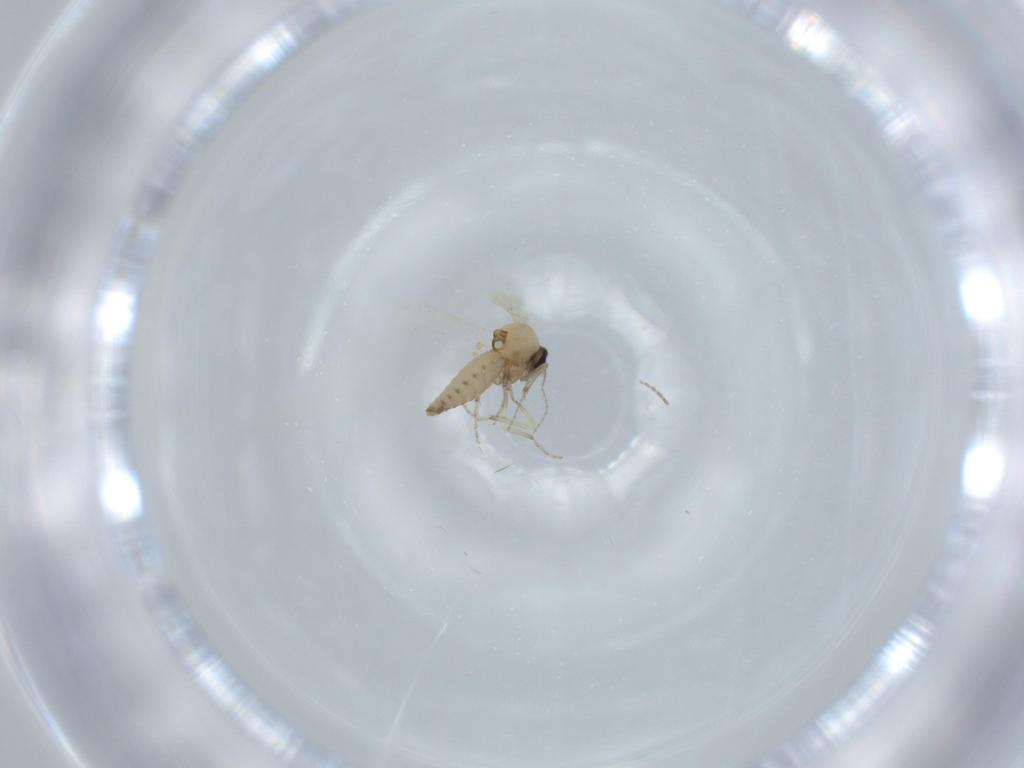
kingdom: Animalia
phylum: Arthropoda
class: Insecta
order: Diptera
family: Ceratopogonidae
